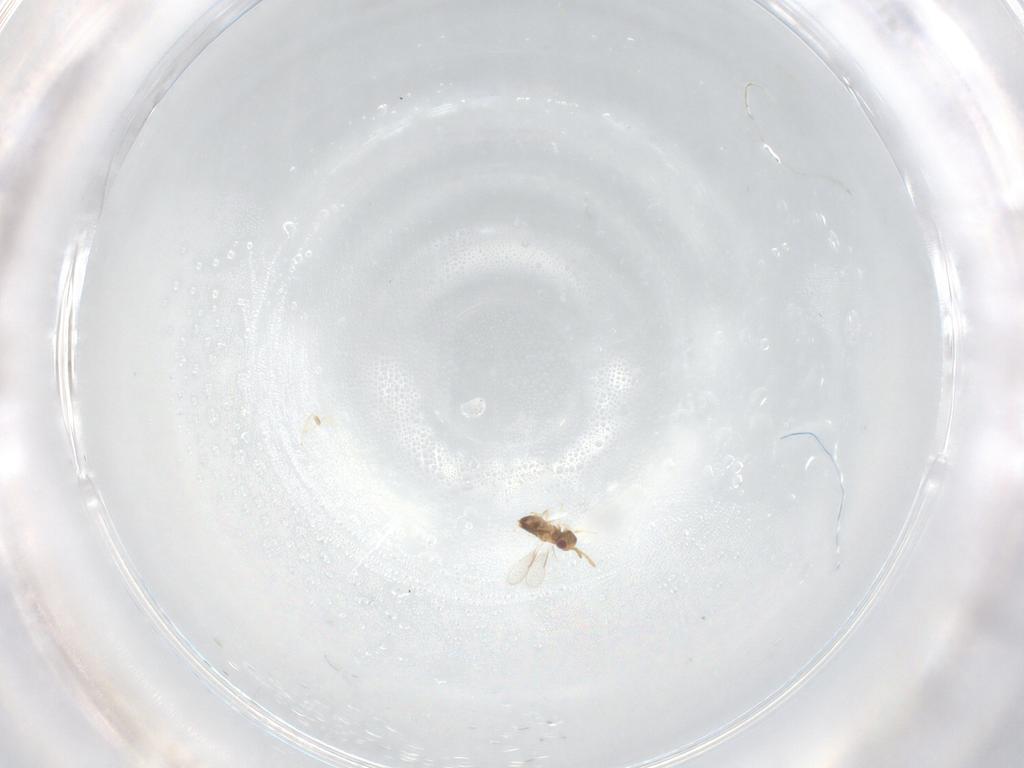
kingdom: Animalia
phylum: Arthropoda
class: Insecta
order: Hymenoptera
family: Aphelinidae
